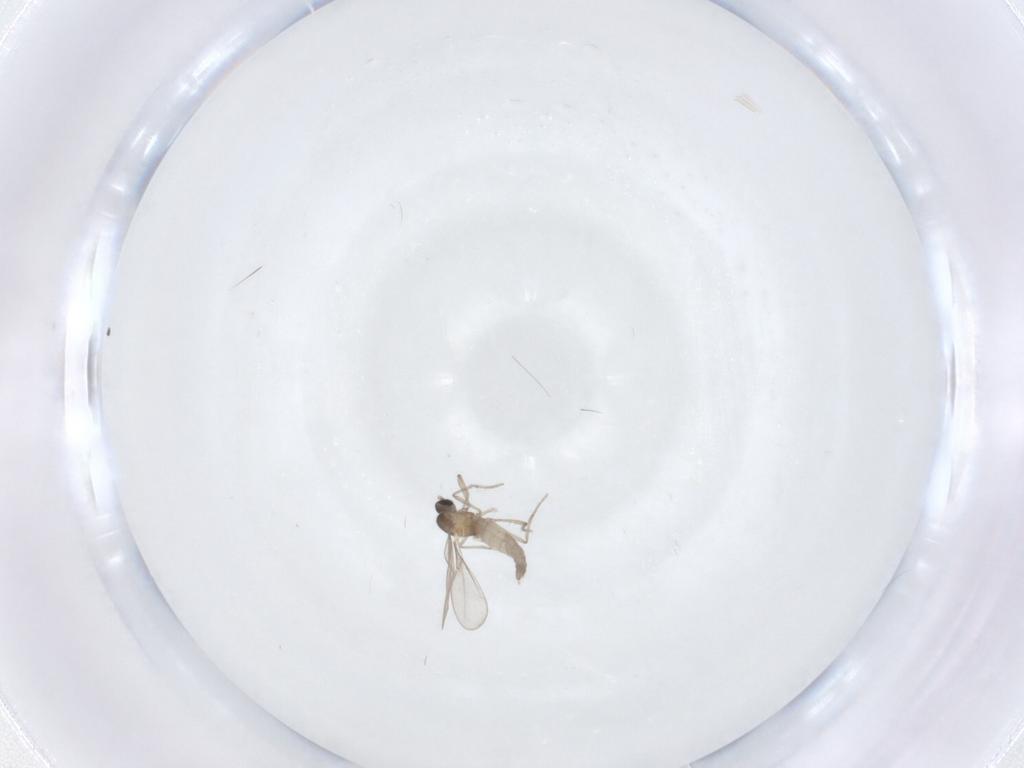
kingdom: Animalia
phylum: Arthropoda
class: Insecta
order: Diptera
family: Cecidomyiidae
